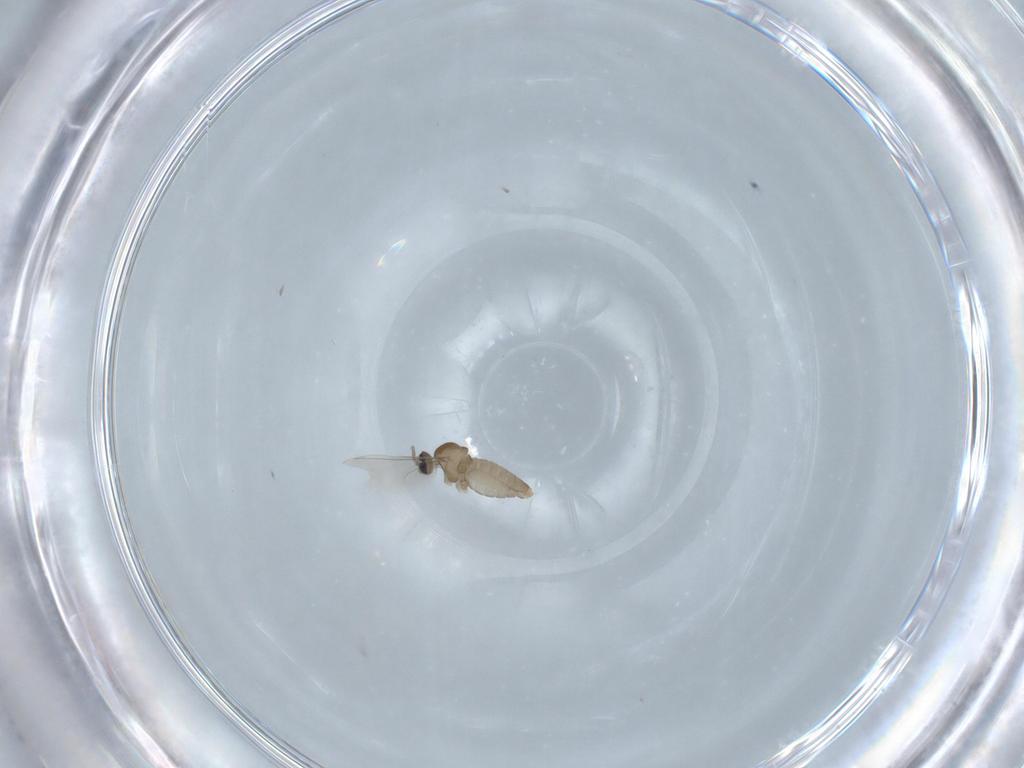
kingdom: Animalia
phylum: Arthropoda
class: Insecta
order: Diptera
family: Cecidomyiidae
